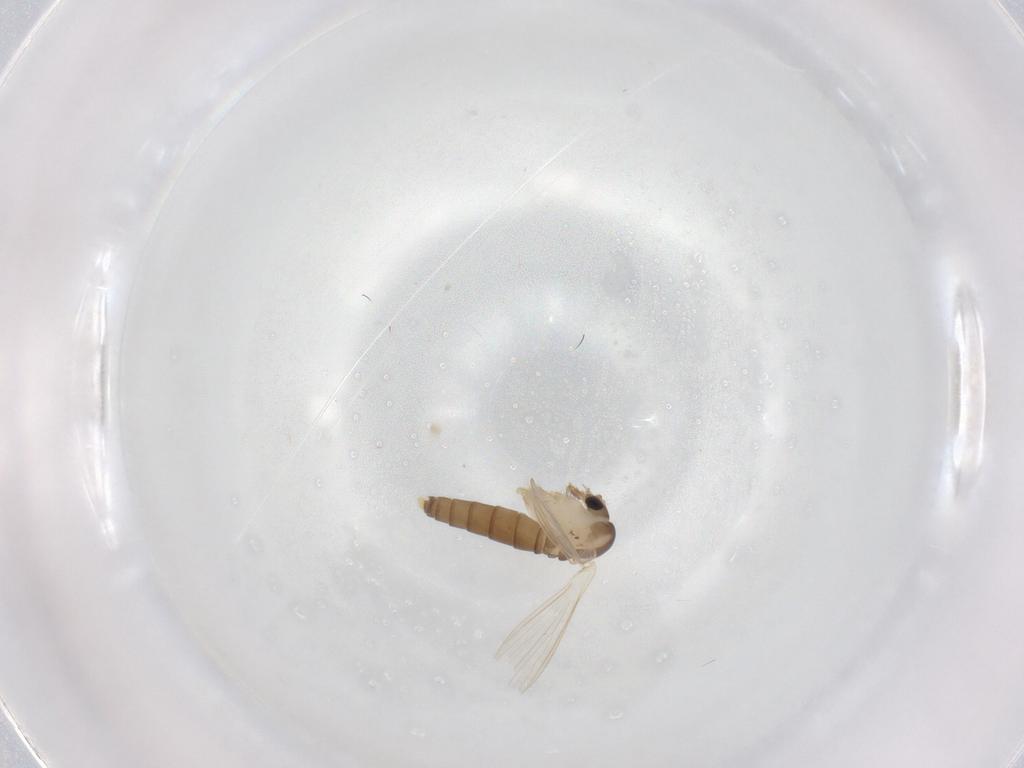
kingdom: Animalia
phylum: Arthropoda
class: Insecta
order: Diptera
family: Psychodidae
